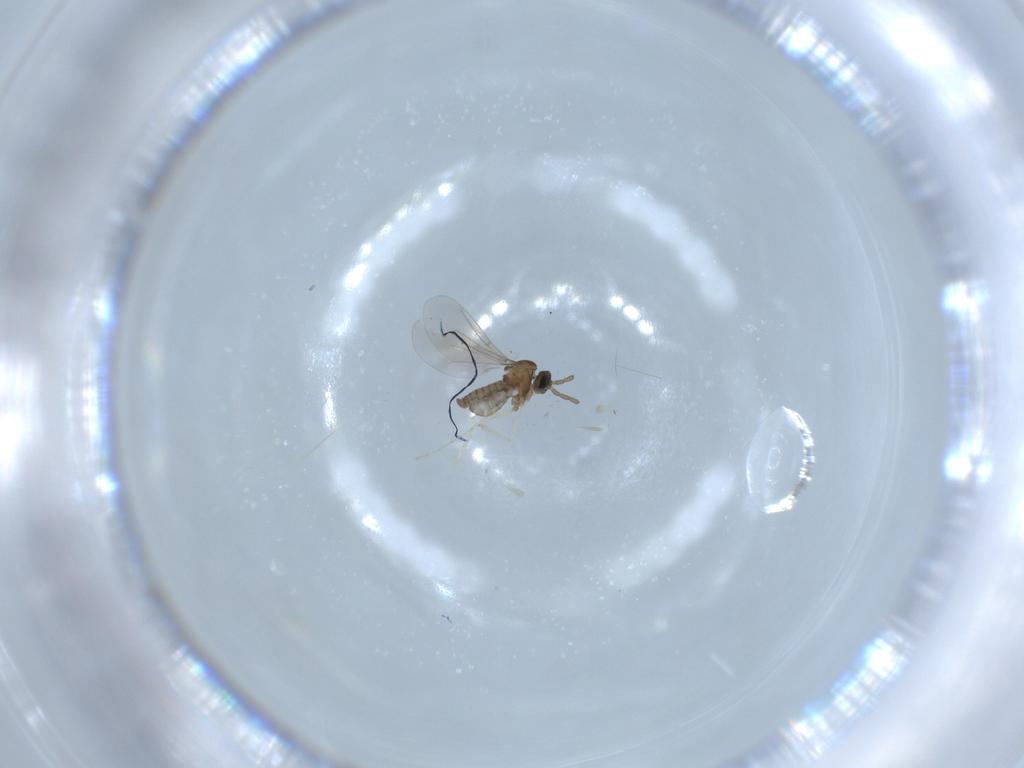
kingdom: Animalia
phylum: Arthropoda
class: Insecta
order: Diptera
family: Cecidomyiidae
